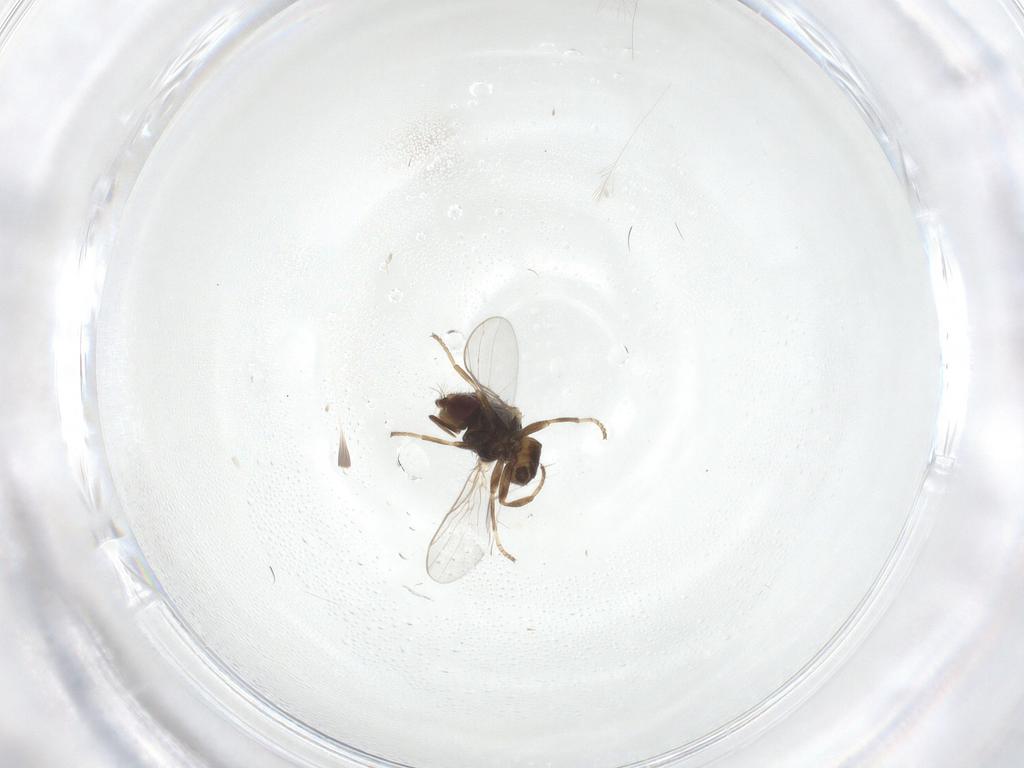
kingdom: Animalia
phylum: Arthropoda
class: Insecta
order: Diptera
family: Chloropidae
